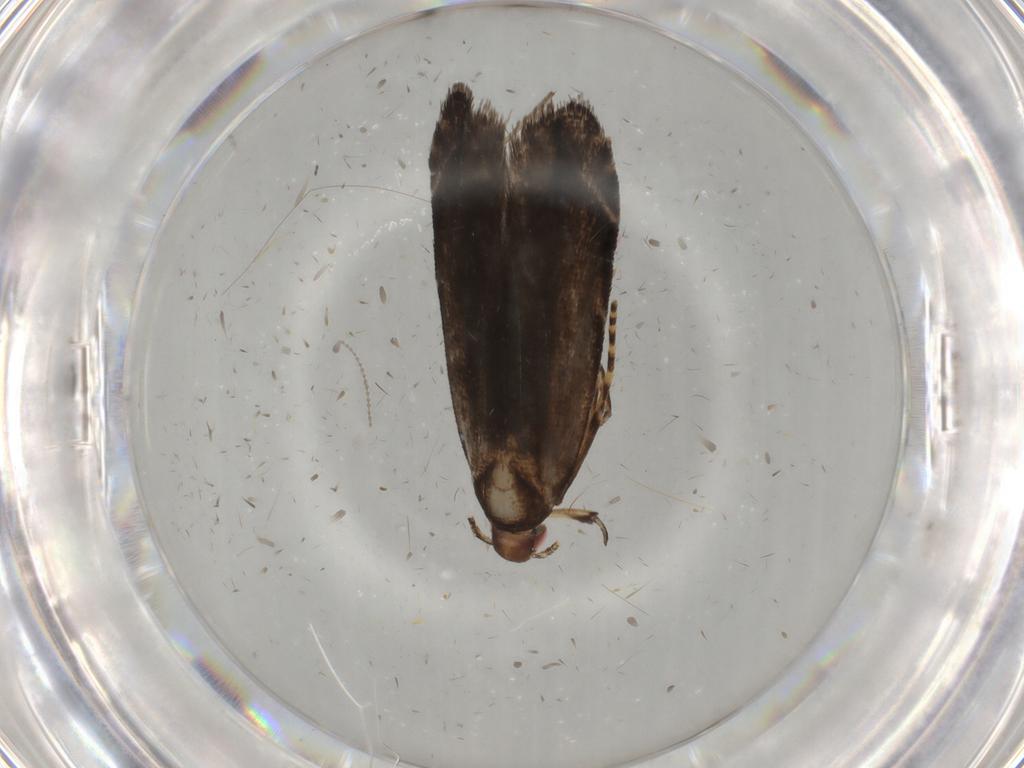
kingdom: Animalia
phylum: Arthropoda
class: Insecta
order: Lepidoptera
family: Gelechiidae
